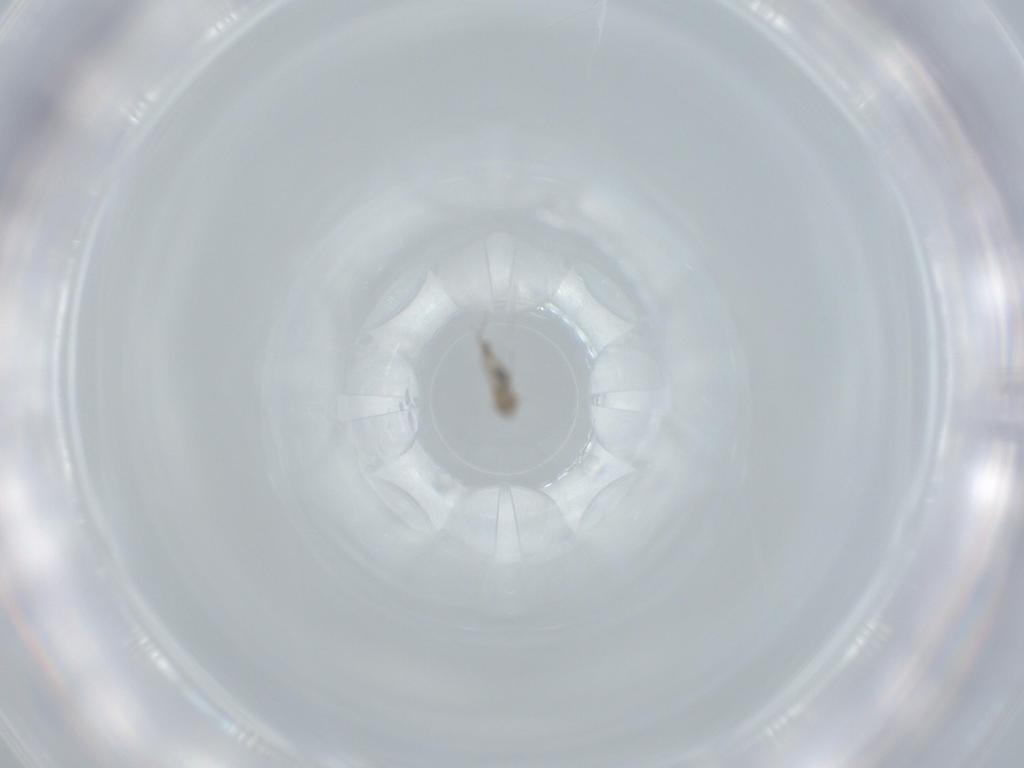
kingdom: Animalia
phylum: Arthropoda
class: Insecta
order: Diptera
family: Cecidomyiidae
